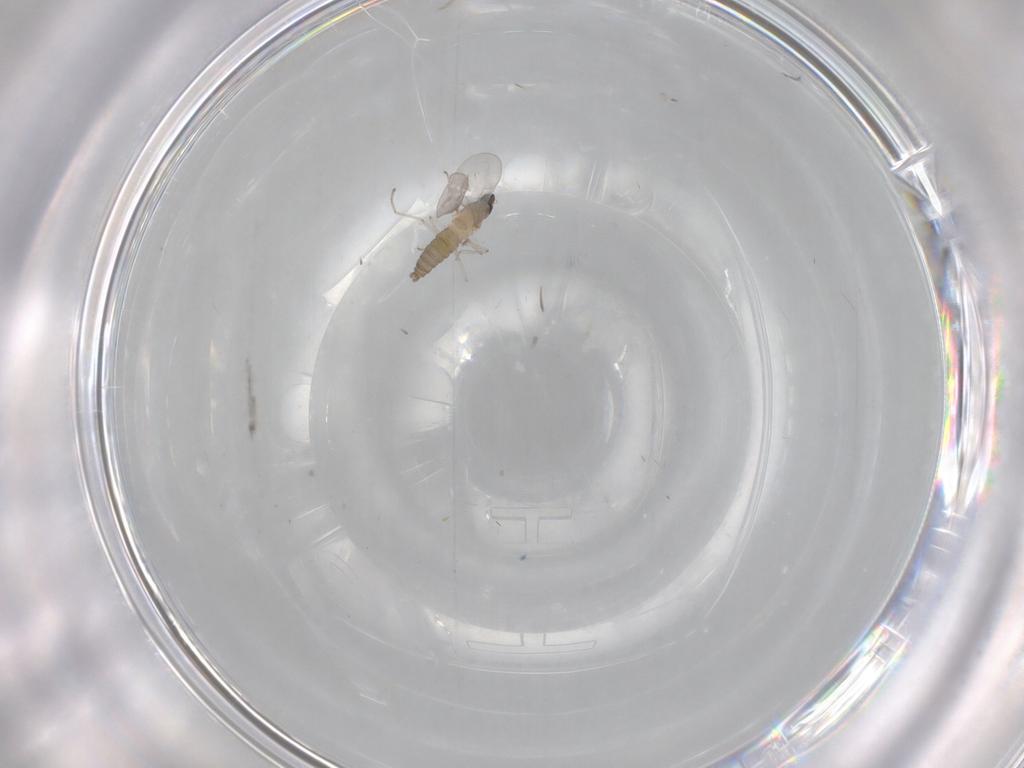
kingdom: Animalia
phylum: Arthropoda
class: Insecta
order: Diptera
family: Cecidomyiidae
